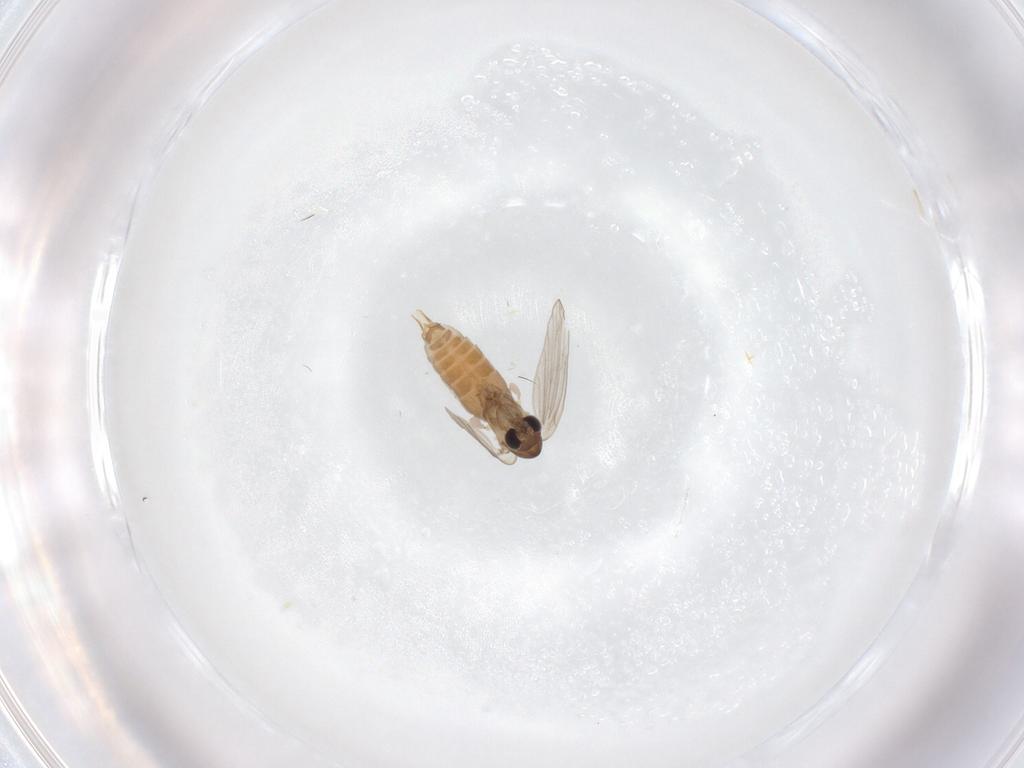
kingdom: Animalia
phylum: Arthropoda
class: Insecta
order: Diptera
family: Psychodidae
